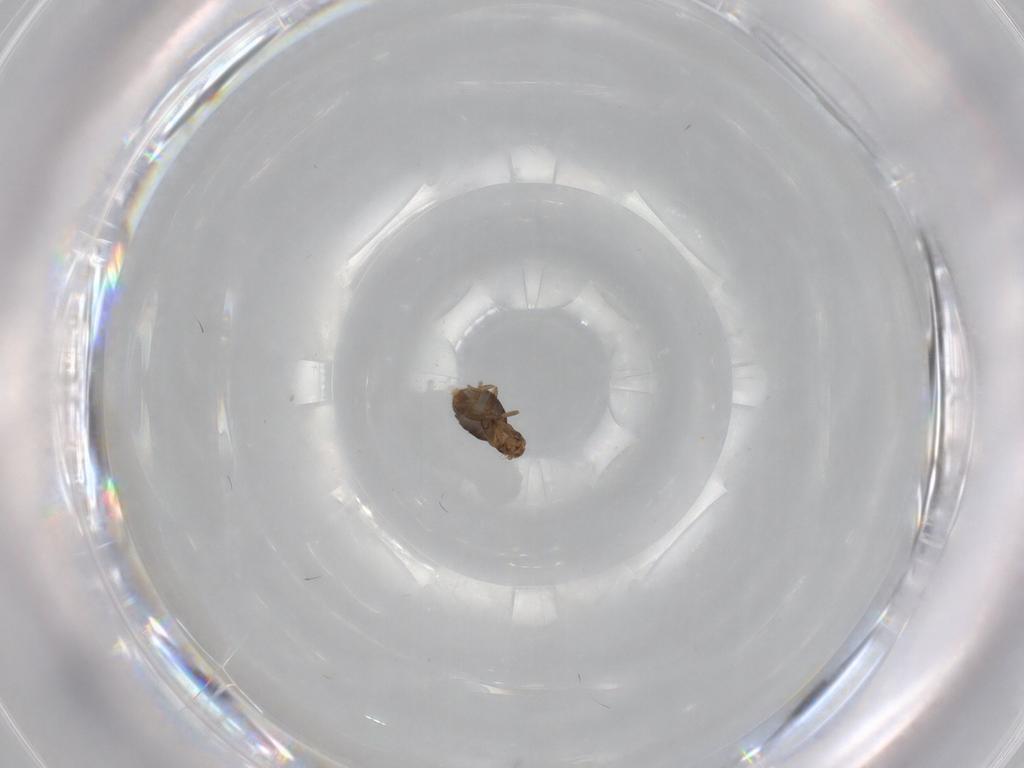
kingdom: Animalia
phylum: Arthropoda
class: Insecta
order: Diptera
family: Dolichopodidae
